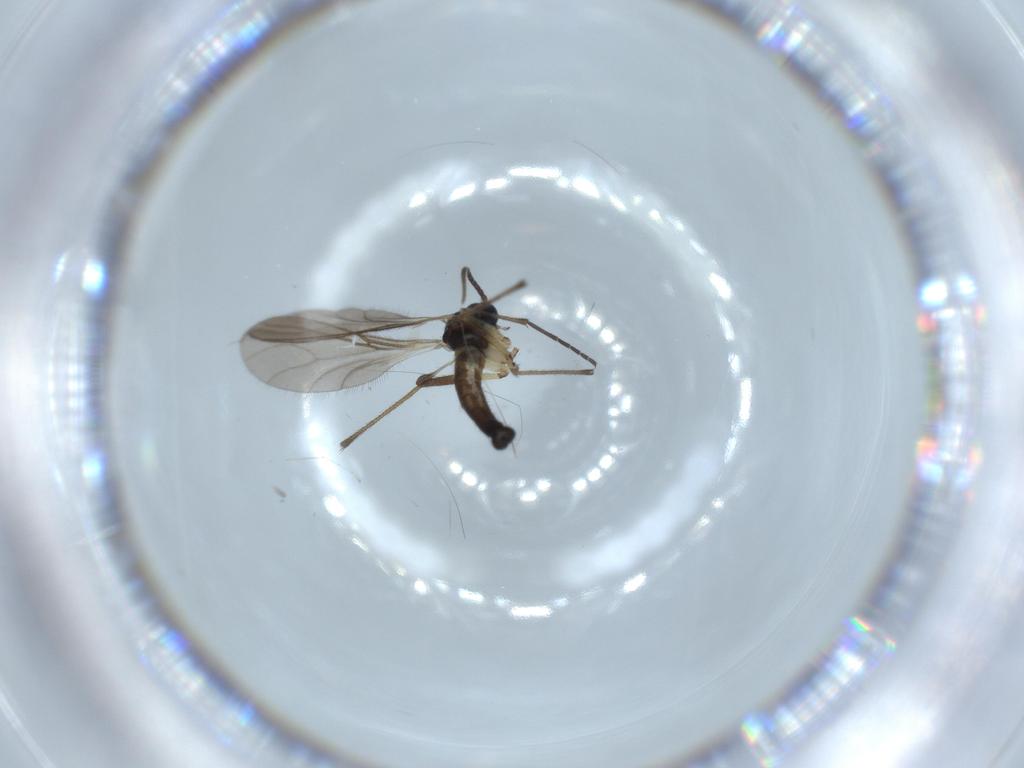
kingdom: Animalia
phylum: Arthropoda
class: Insecta
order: Diptera
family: Sciaridae
